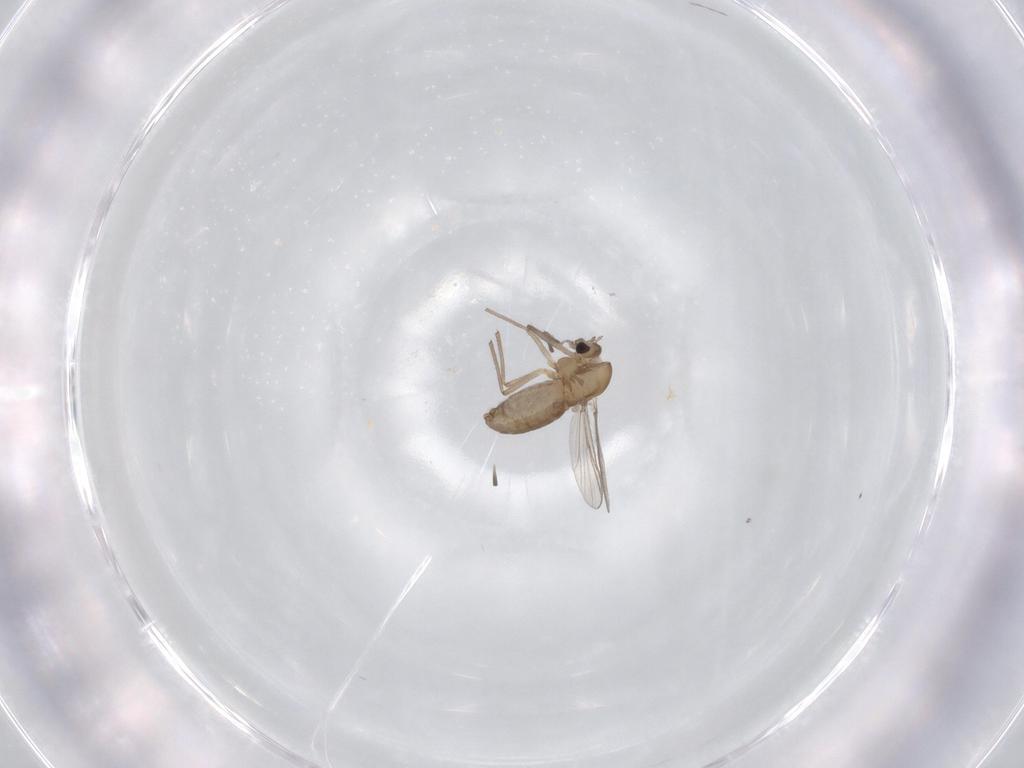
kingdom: Animalia
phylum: Arthropoda
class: Insecta
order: Diptera
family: Chironomidae
